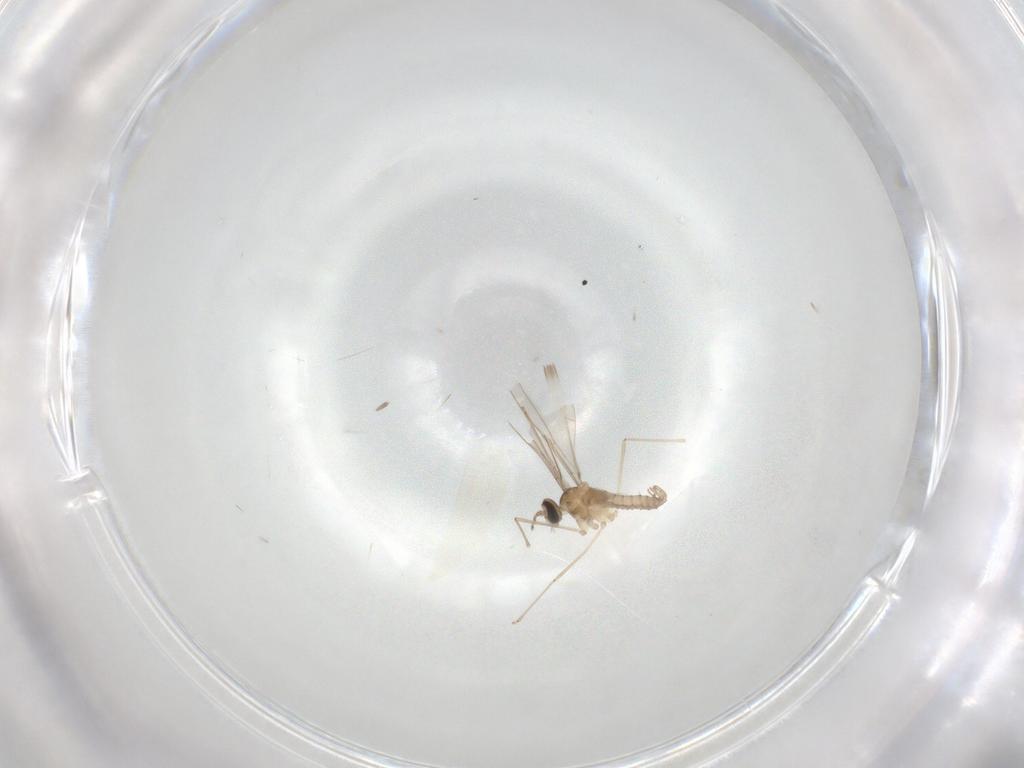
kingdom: Animalia
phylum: Arthropoda
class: Insecta
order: Diptera
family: Cecidomyiidae
